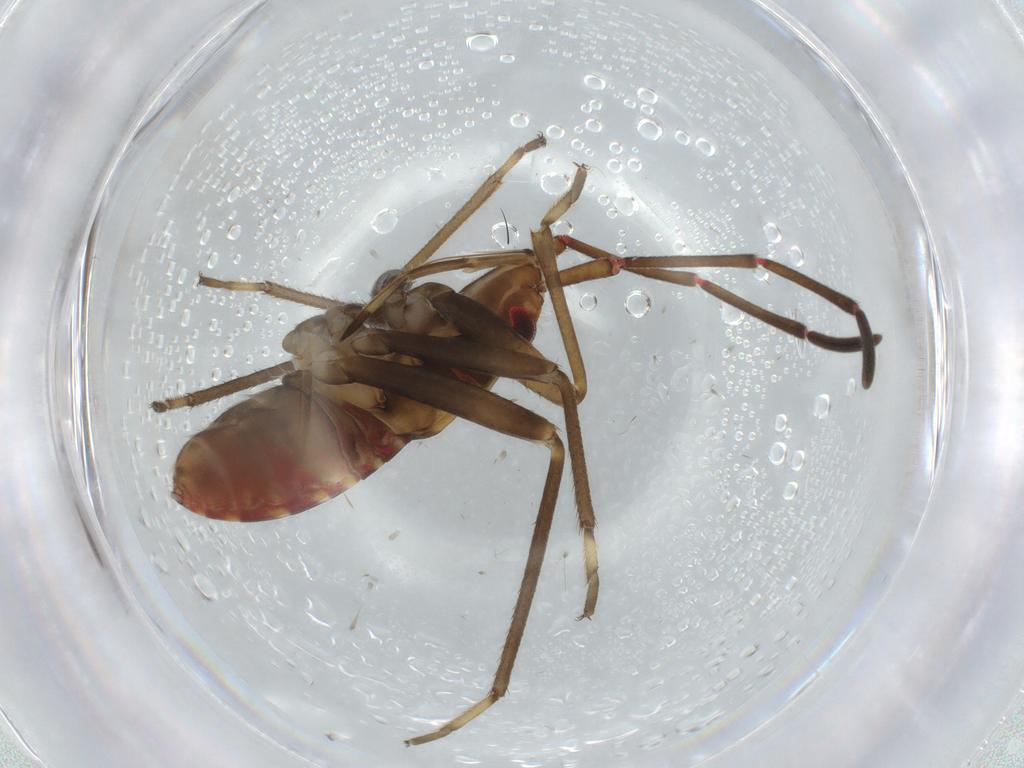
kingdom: Animalia
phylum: Arthropoda
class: Insecta
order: Hemiptera
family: Rhyparochromidae
